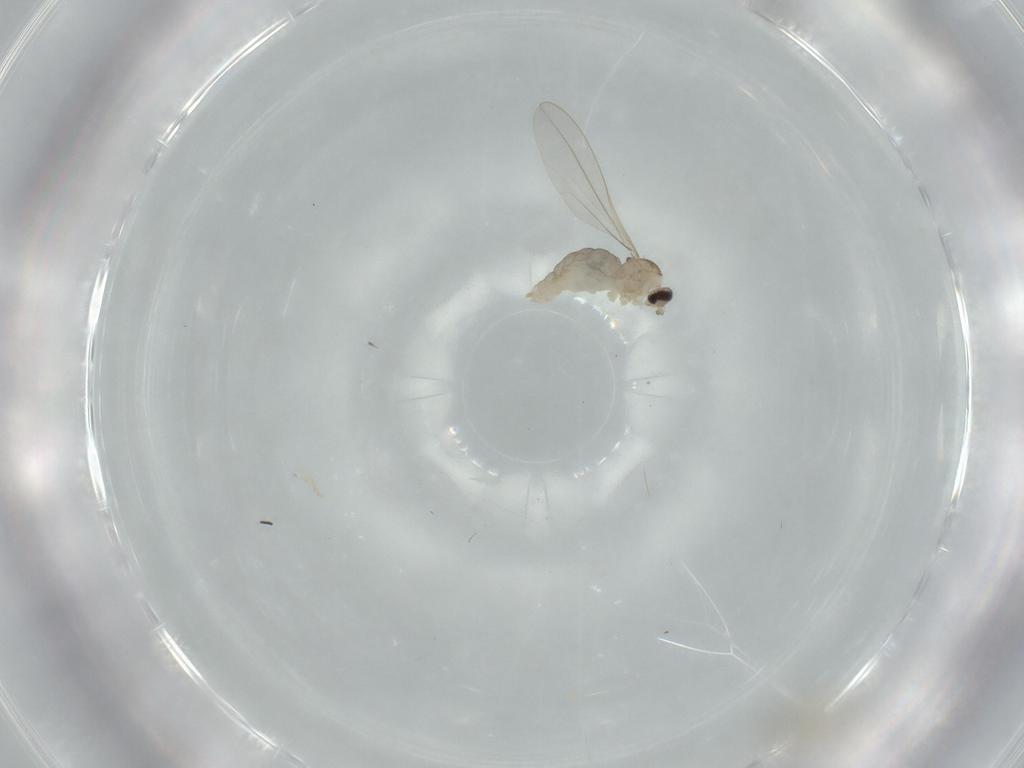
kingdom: Animalia
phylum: Arthropoda
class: Insecta
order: Diptera
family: Cecidomyiidae
